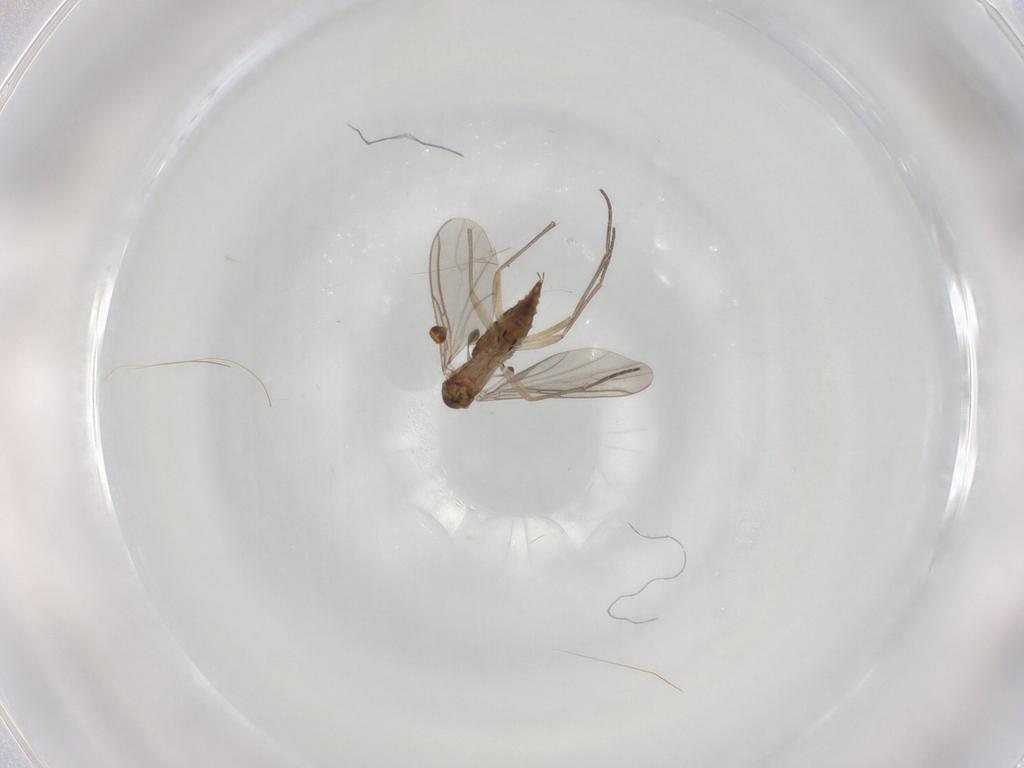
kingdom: Animalia
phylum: Arthropoda
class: Insecta
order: Diptera
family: Sciaridae
